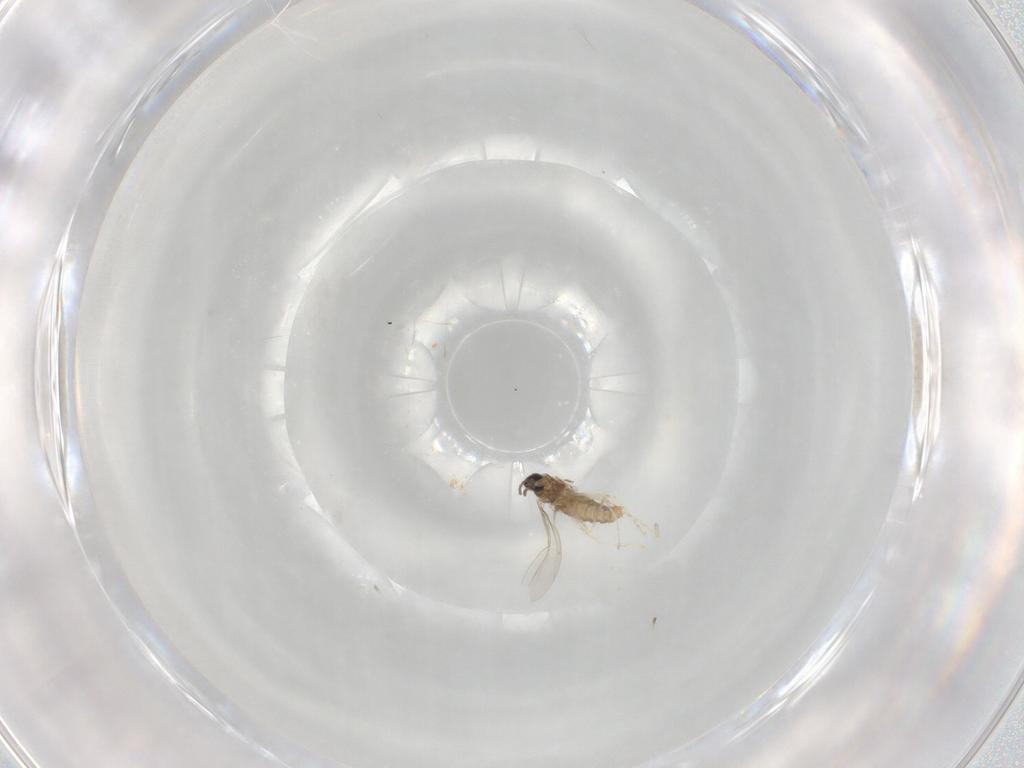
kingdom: Animalia
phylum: Arthropoda
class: Insecta
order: Diptera
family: Cecidomyiidae
